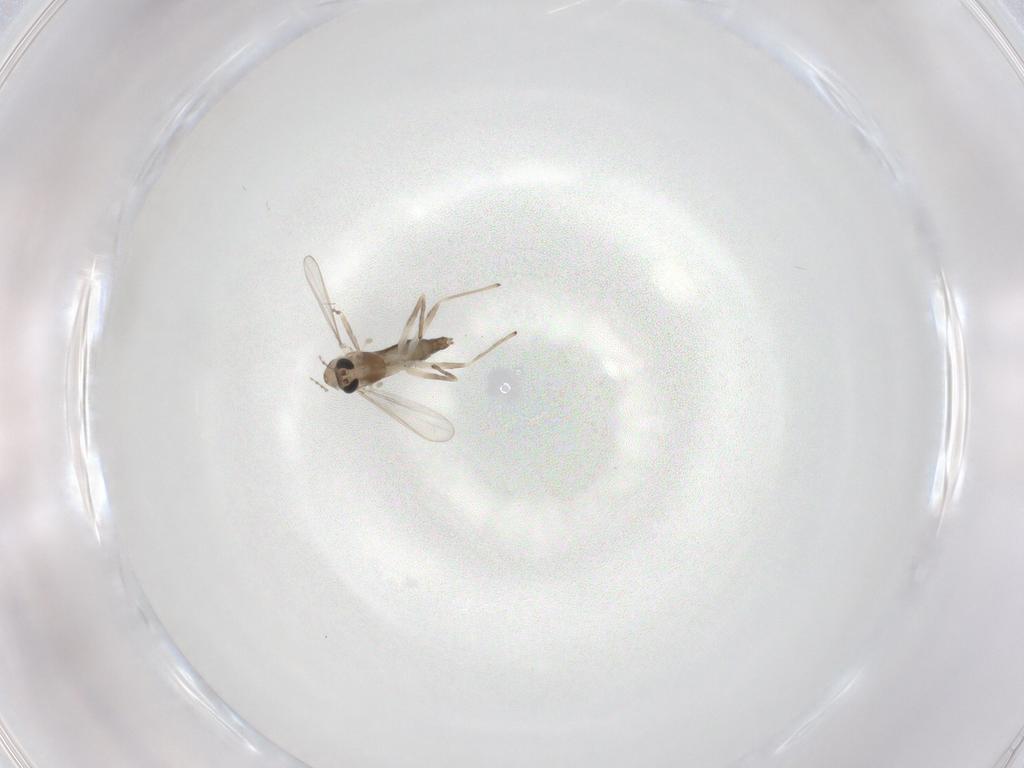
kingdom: Animalia
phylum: Arthropoda
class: Insecta
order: Diptera
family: Chironomidae
